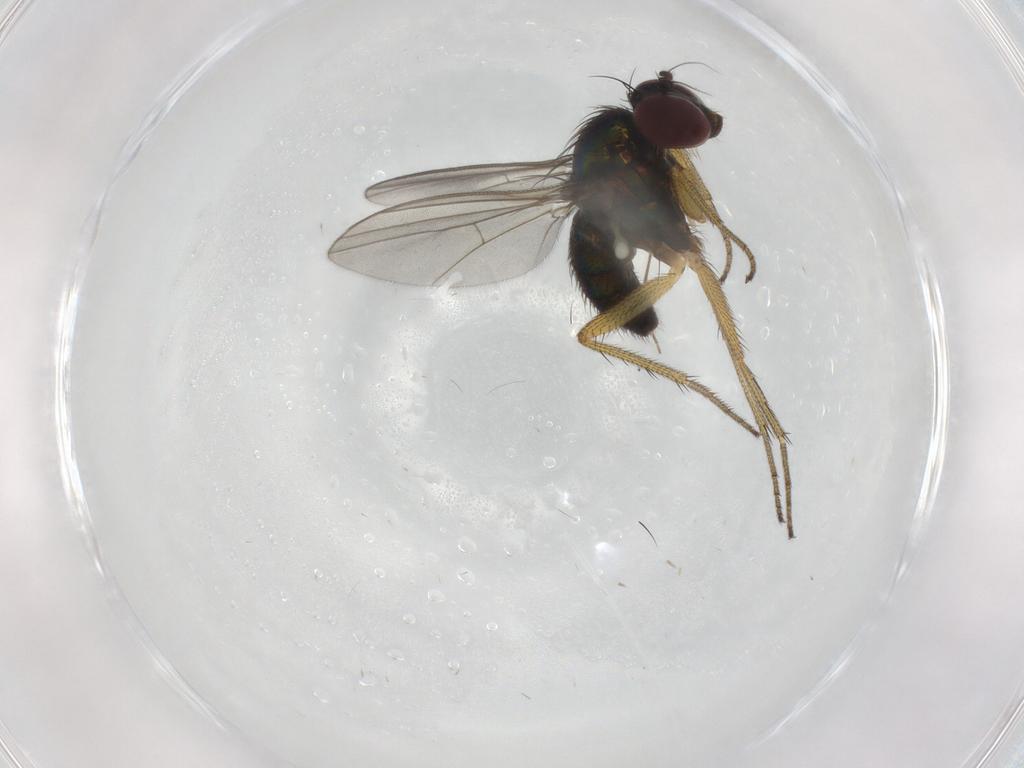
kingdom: Animalia
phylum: Arthropoda
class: Insecta
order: Diptera
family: Dolichopodidae
